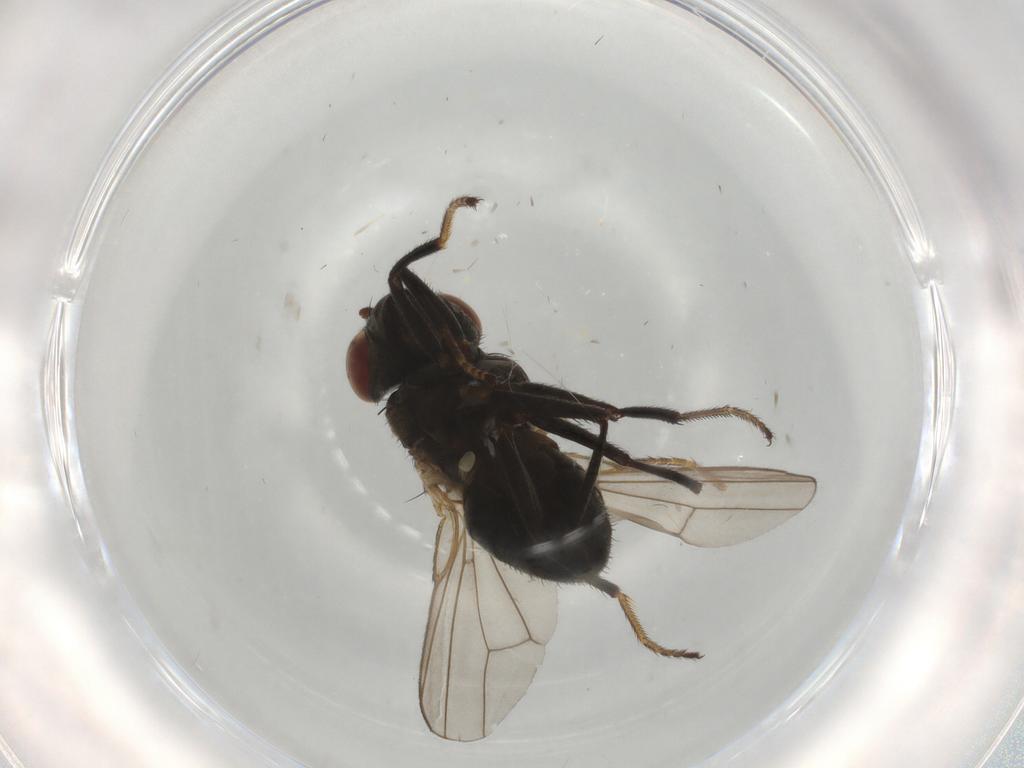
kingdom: Animalia
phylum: Arthropoda
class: Insecta
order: Diptera
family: Ephydridae
